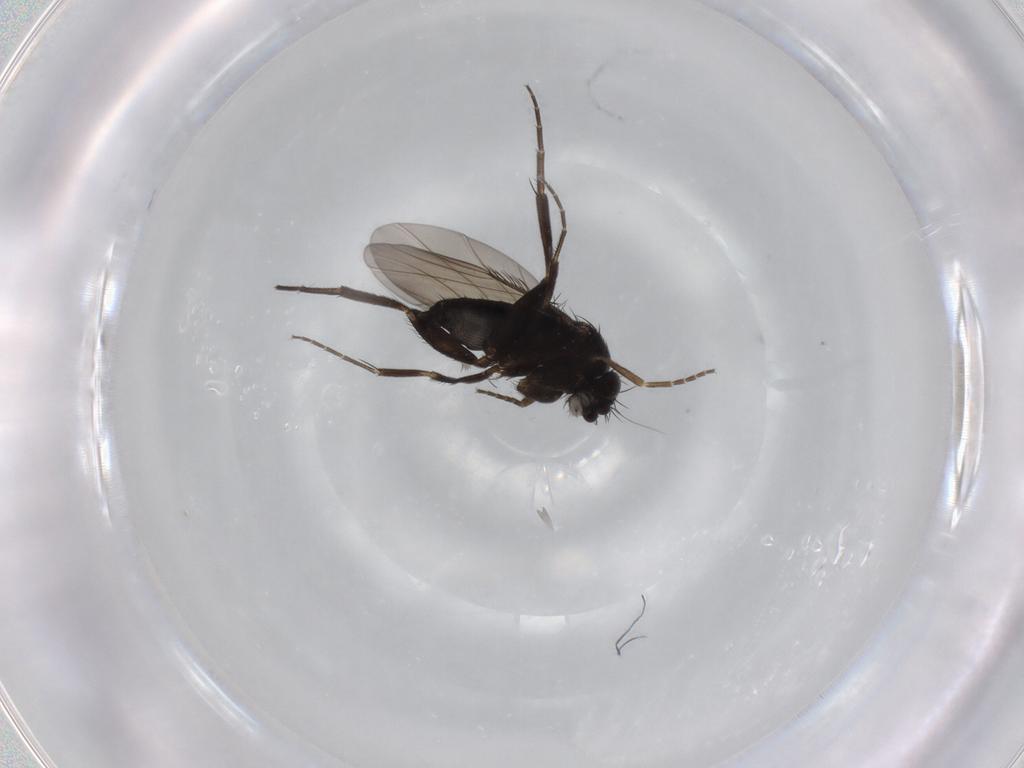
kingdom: Animalia
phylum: Arthropoda
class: Insecta
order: Diptera
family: Phoridae
